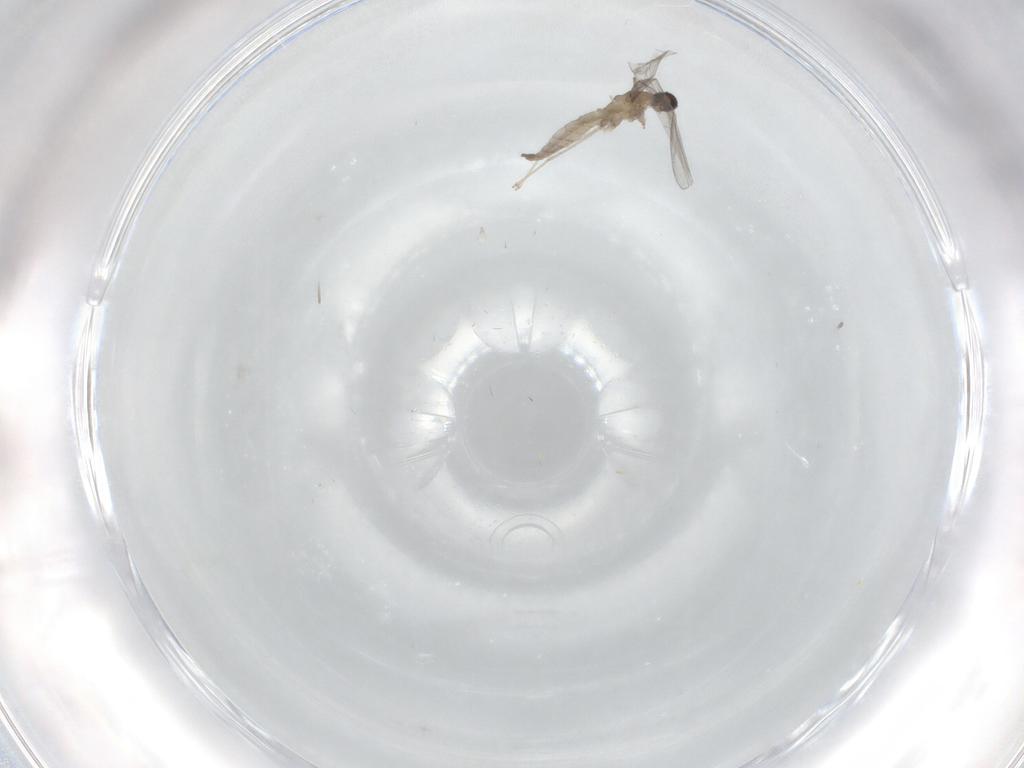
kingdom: Animalia
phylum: Arthropoda
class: Insecta
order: Diptera
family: Cecidomyiidae
